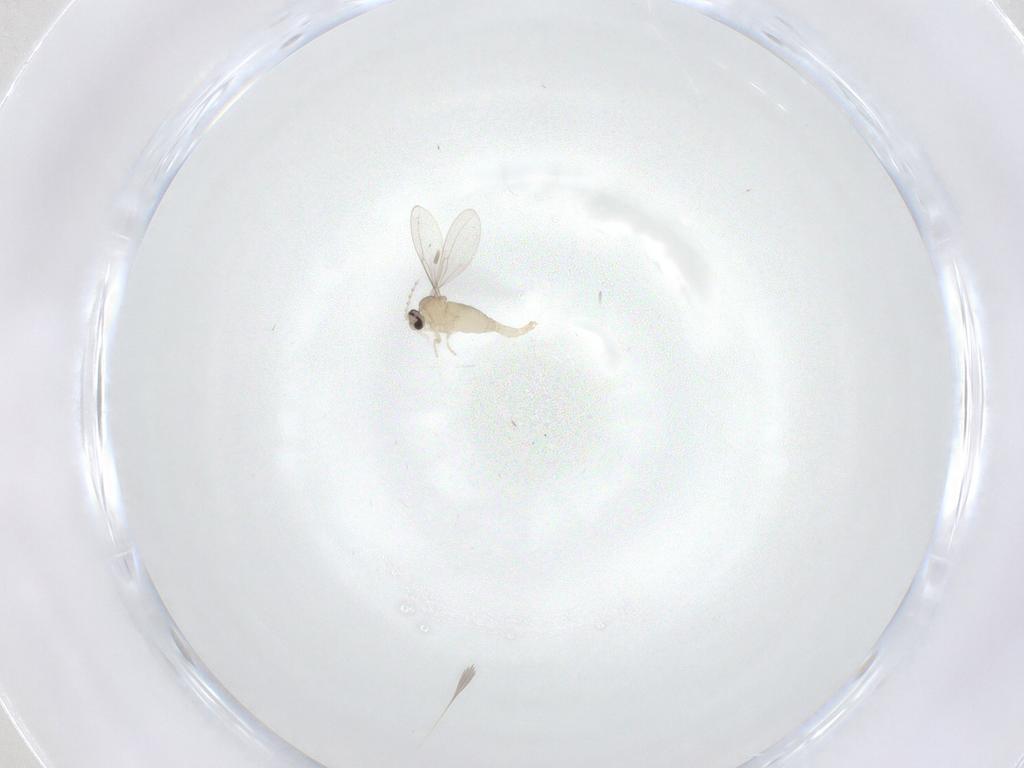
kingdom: Animalia
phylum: Arthropoda
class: Insecta
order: Diptera
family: Cecidomyiidae
